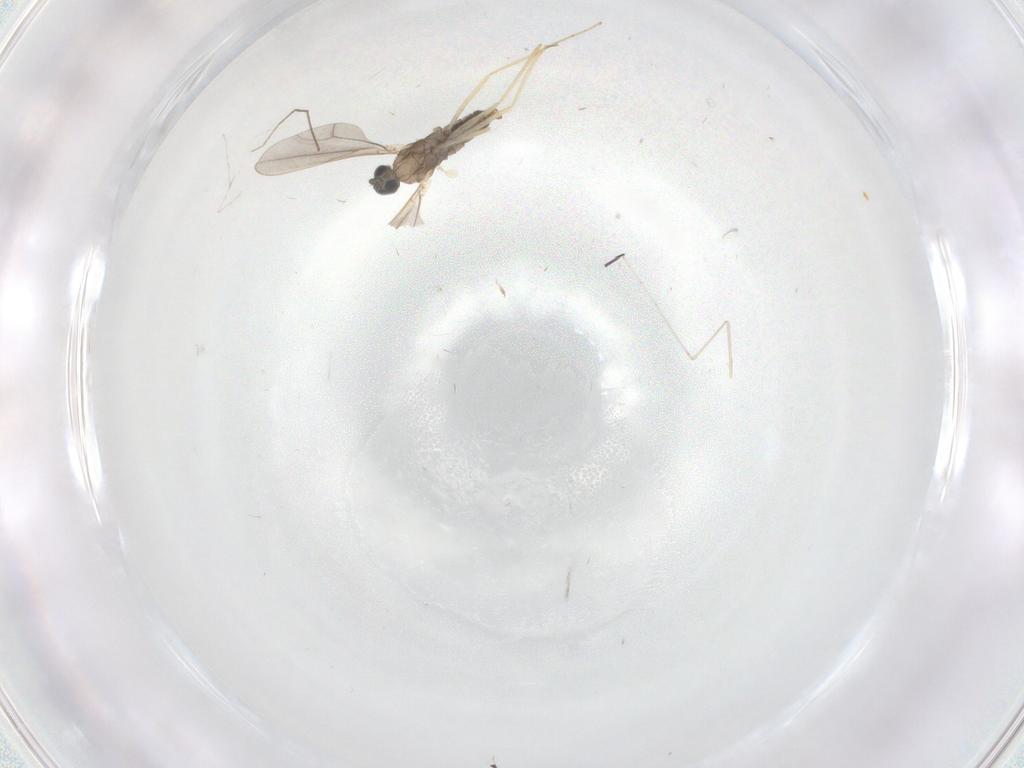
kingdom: Animalia
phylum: Arthropoda
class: Insecta
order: Diptera
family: Cecidomyiidae
